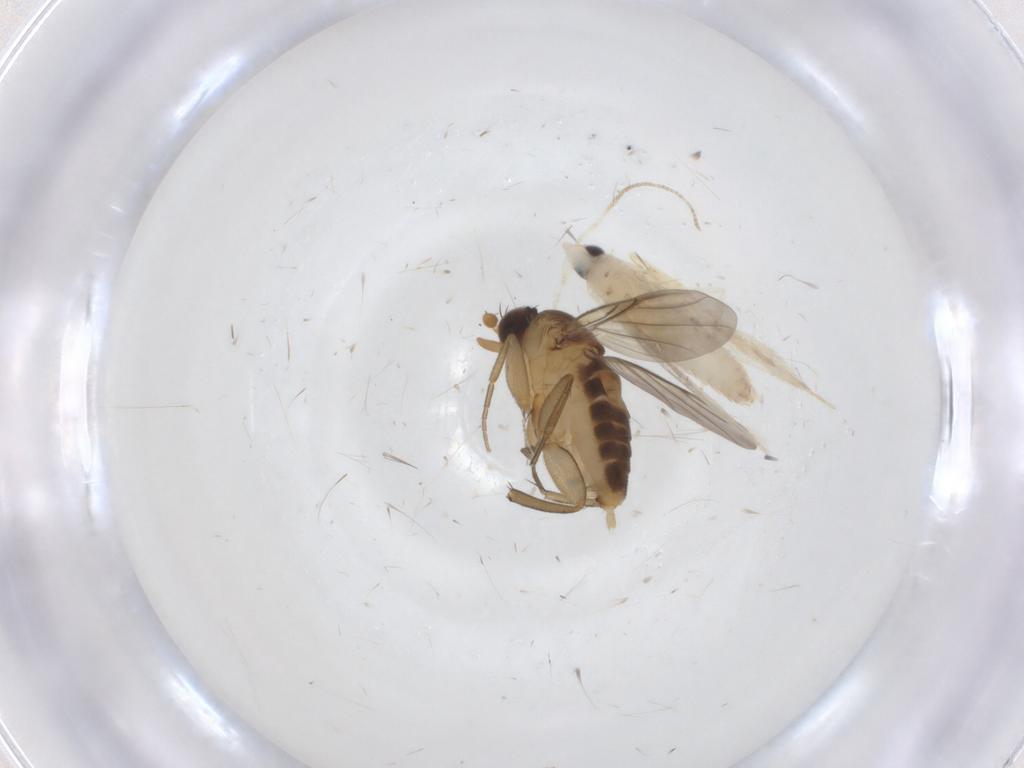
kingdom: Animalia
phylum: Arthropoda
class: Insecta
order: Lepidoptera
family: Tineidae
